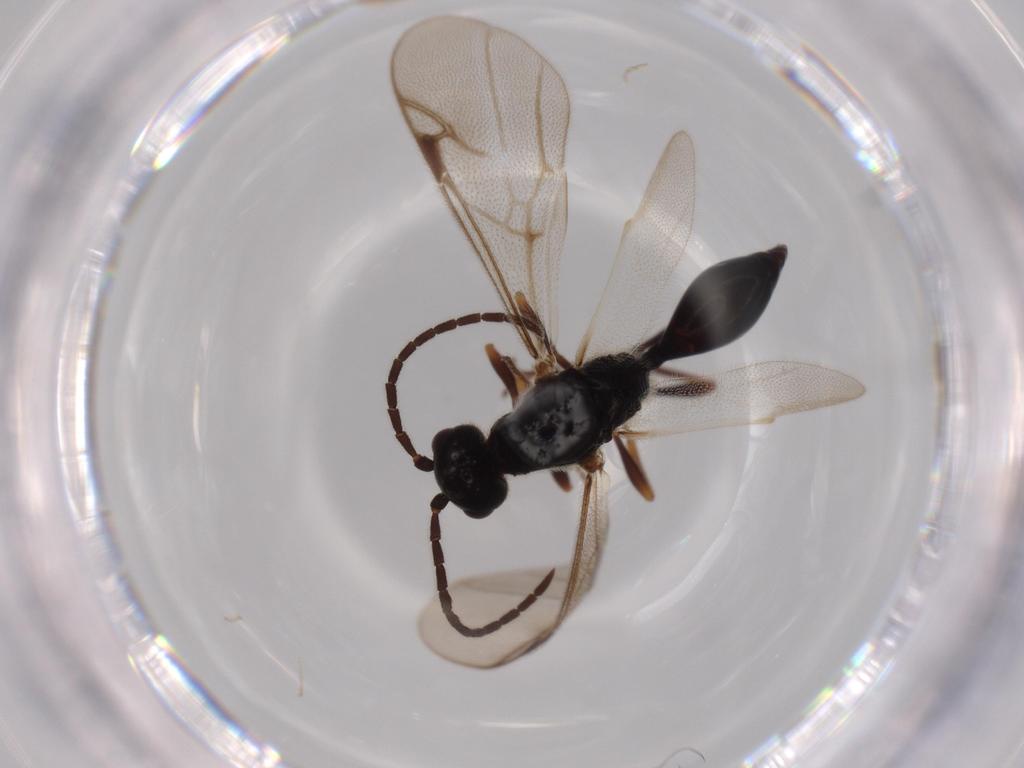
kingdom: Animalia
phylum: Arthropoda
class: Insecta
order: Hymenoptera
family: Proctotrupidae
